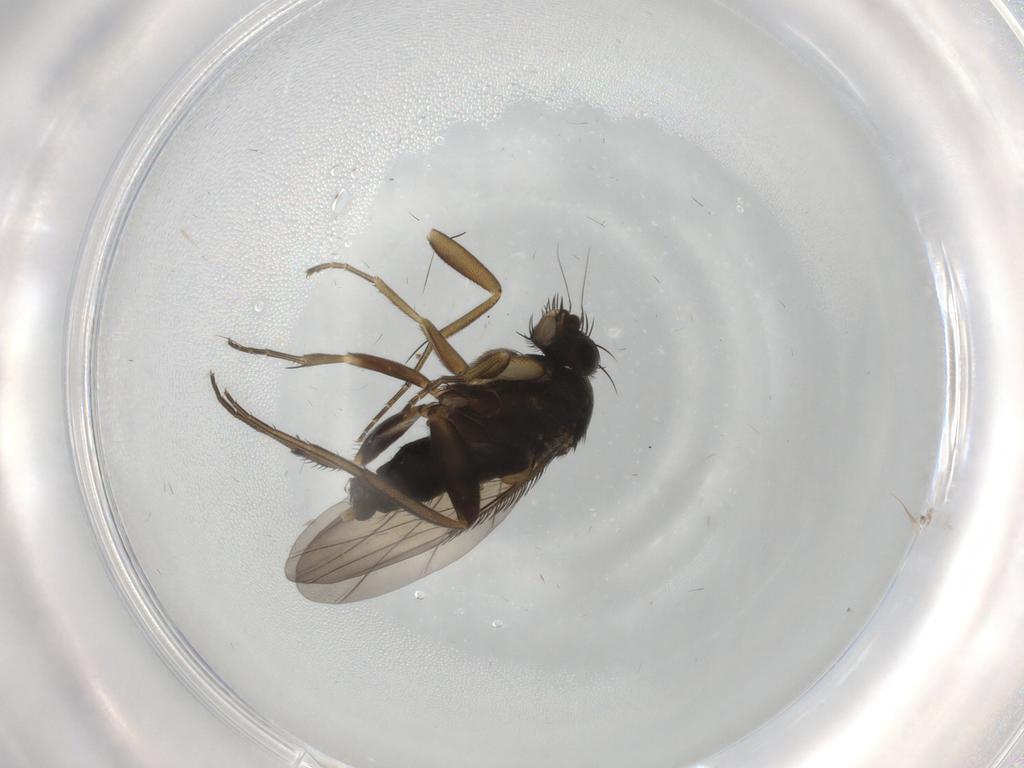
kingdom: Animalia
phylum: Arthropoda
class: Insecta
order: Diptera
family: Phoridae
